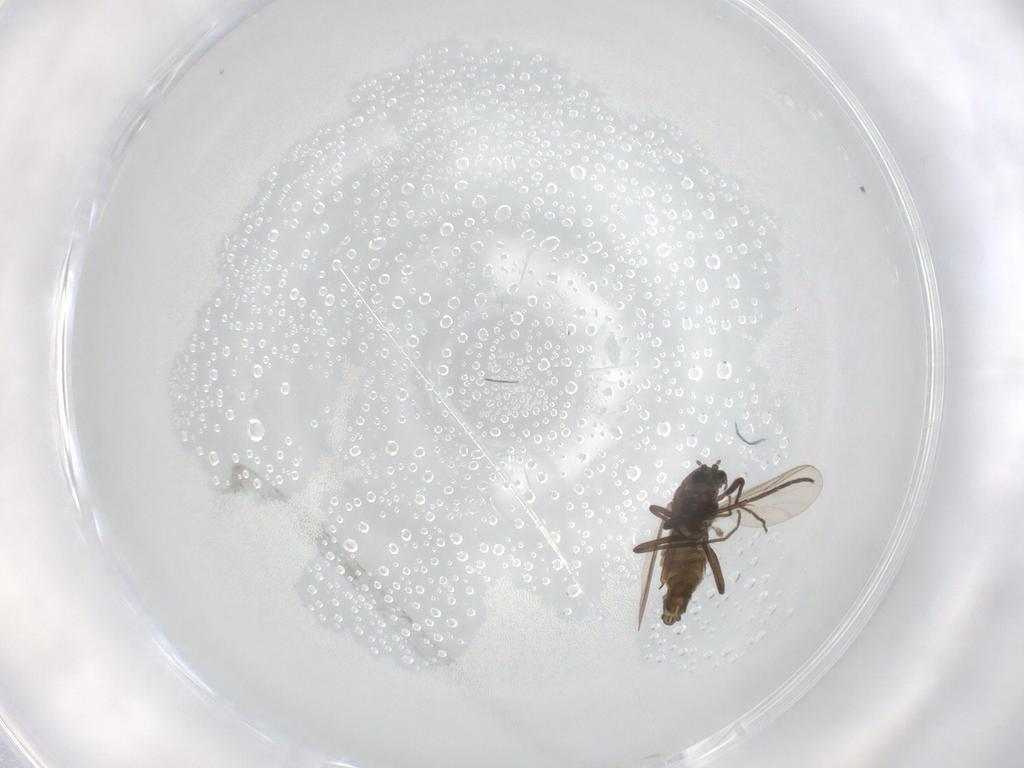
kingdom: Animalia
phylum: Arthropoda
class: Insecta
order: Diptera
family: Chironomidae
